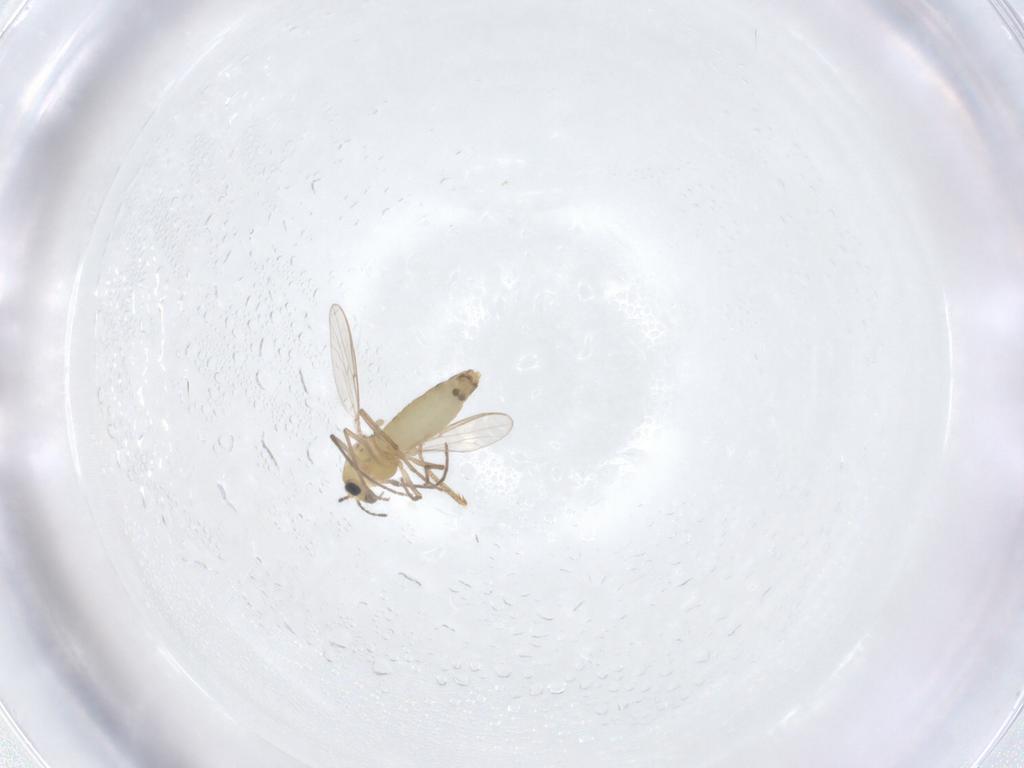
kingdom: Animalia
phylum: Arthropoda
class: Insecta
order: Diptera
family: Chironomidae
